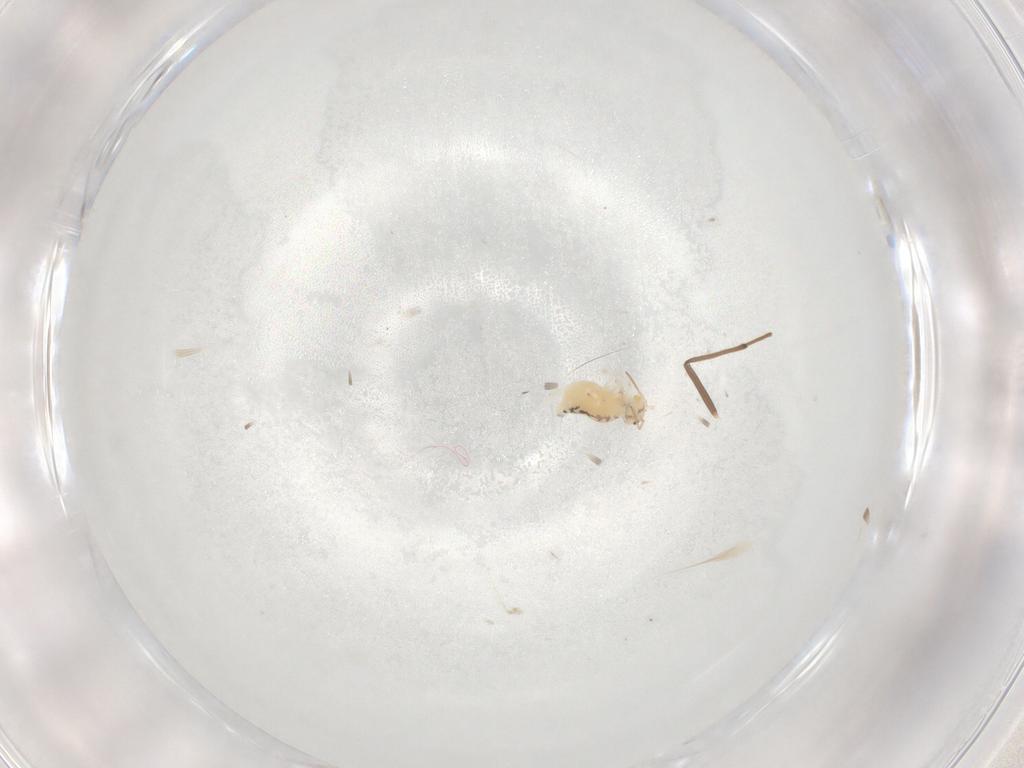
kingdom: Animalia
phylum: Arthropoda
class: Collembola
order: Symphypleona
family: Bourletiellidae
